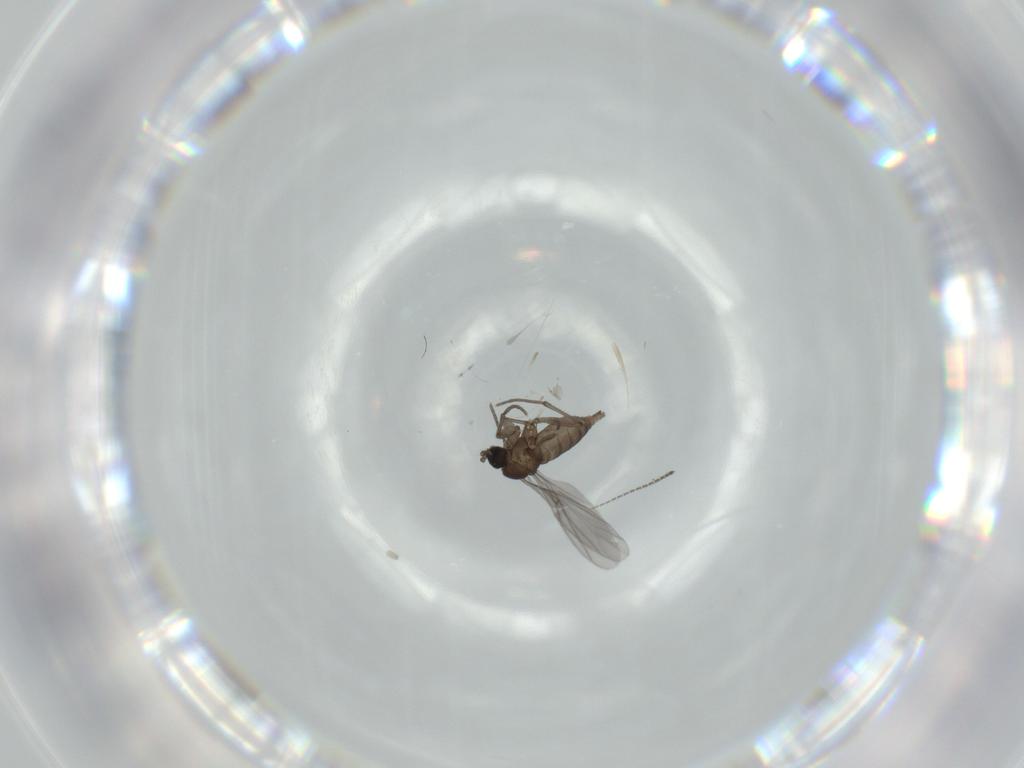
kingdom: Animalia
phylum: Arthropoda
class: Insecta
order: Diptera
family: Sciaridae
